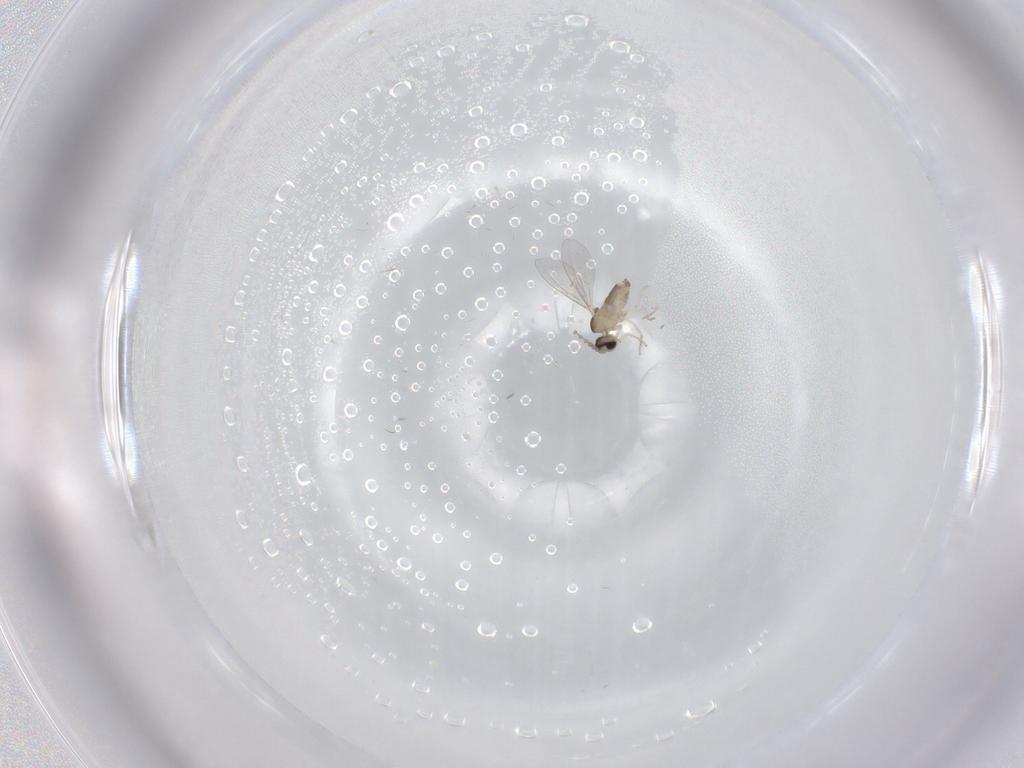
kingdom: Animalia
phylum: Arthropoda
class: Insecta
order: Diptera
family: Cecidomyiidae
